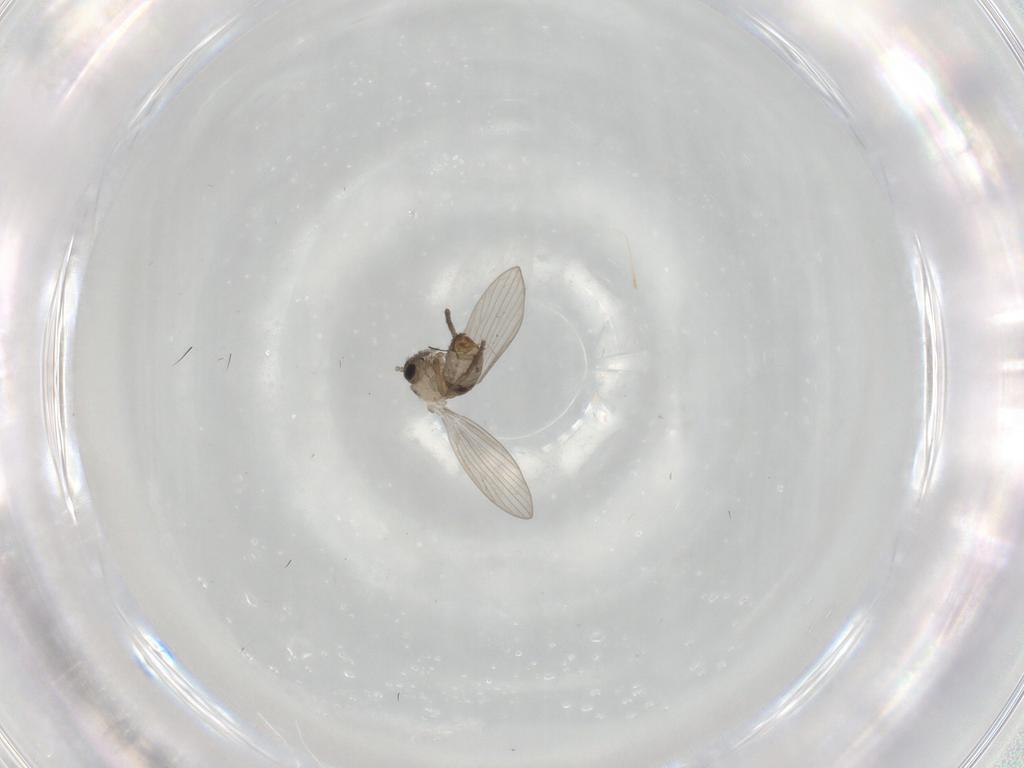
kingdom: Animalia
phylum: Arthropoda
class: Insecta
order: Diptera
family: Psychodidae
